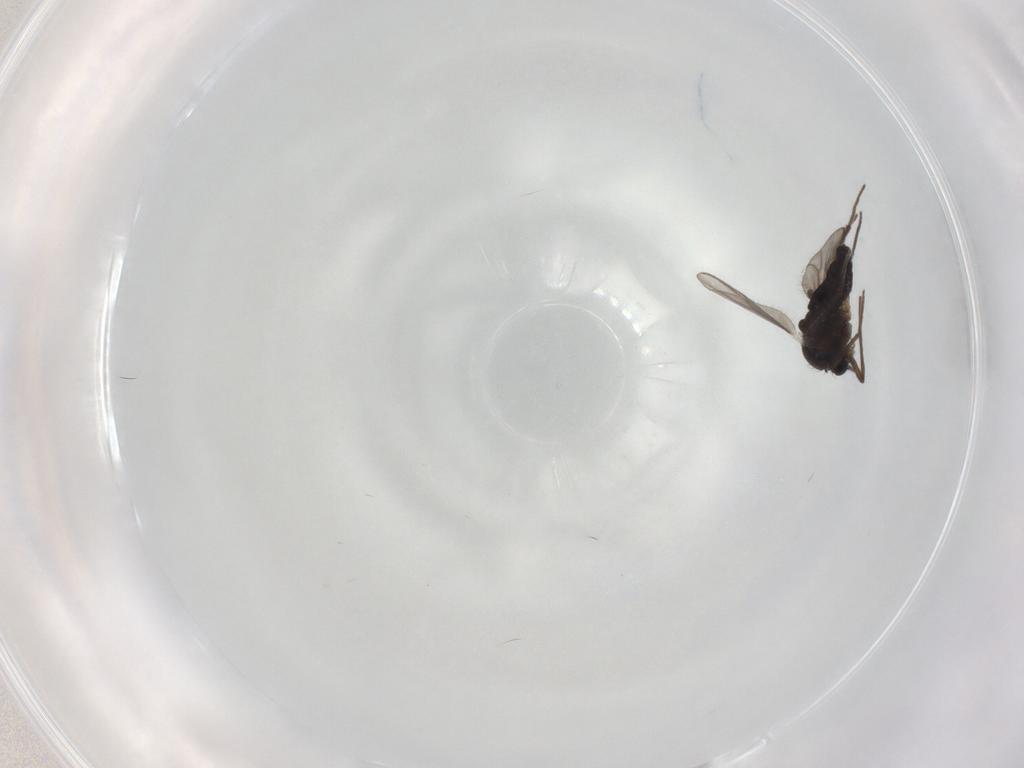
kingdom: Animalia
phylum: Arthropoda
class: Insecta
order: Diptera
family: Chironomidae
